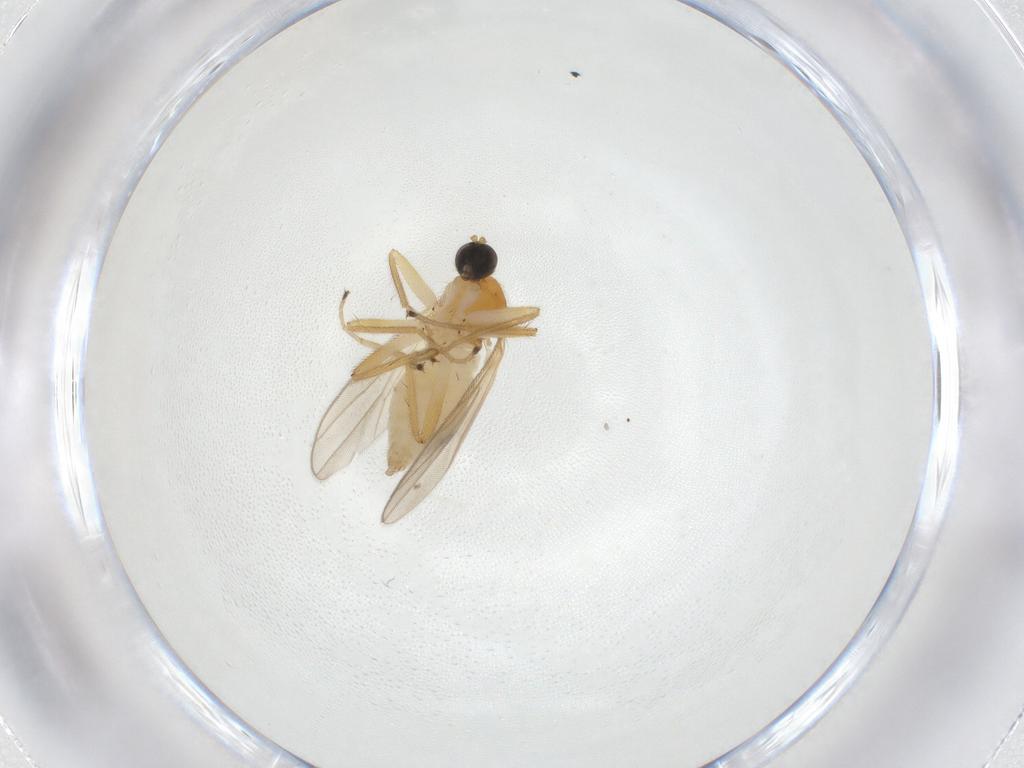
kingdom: Animalia
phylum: Arthropoda
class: Insecta
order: Diptera
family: Hybotidae
